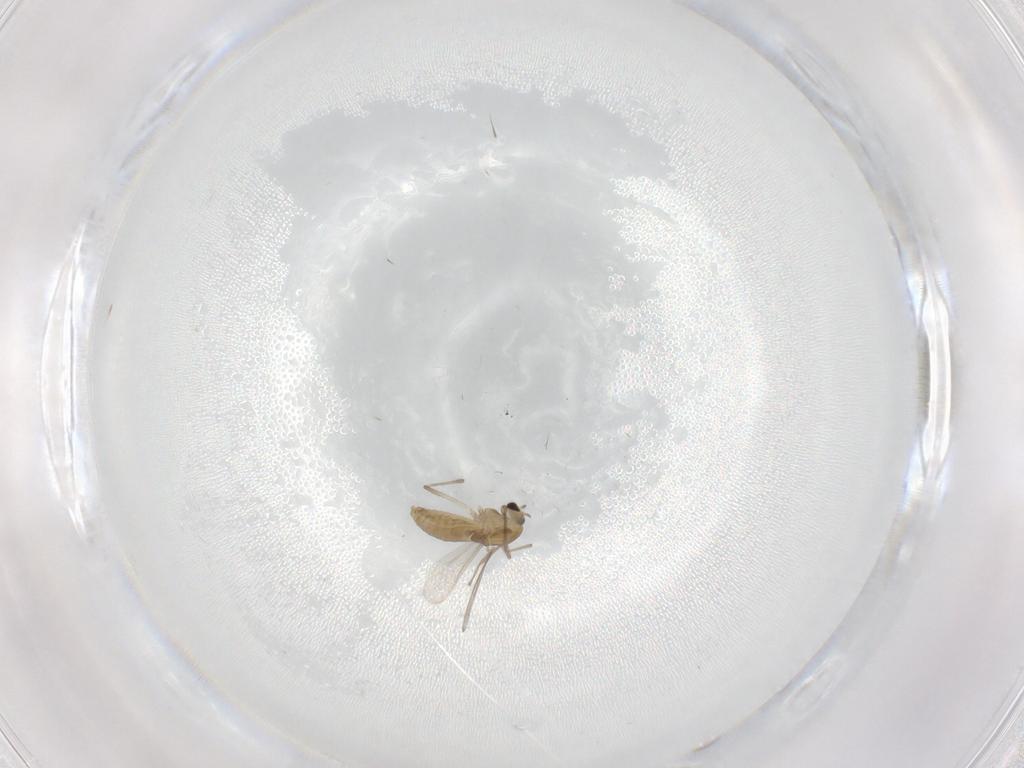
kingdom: Animalia
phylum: Arthropoda
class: Insecta
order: Diptera
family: Chironomidae
